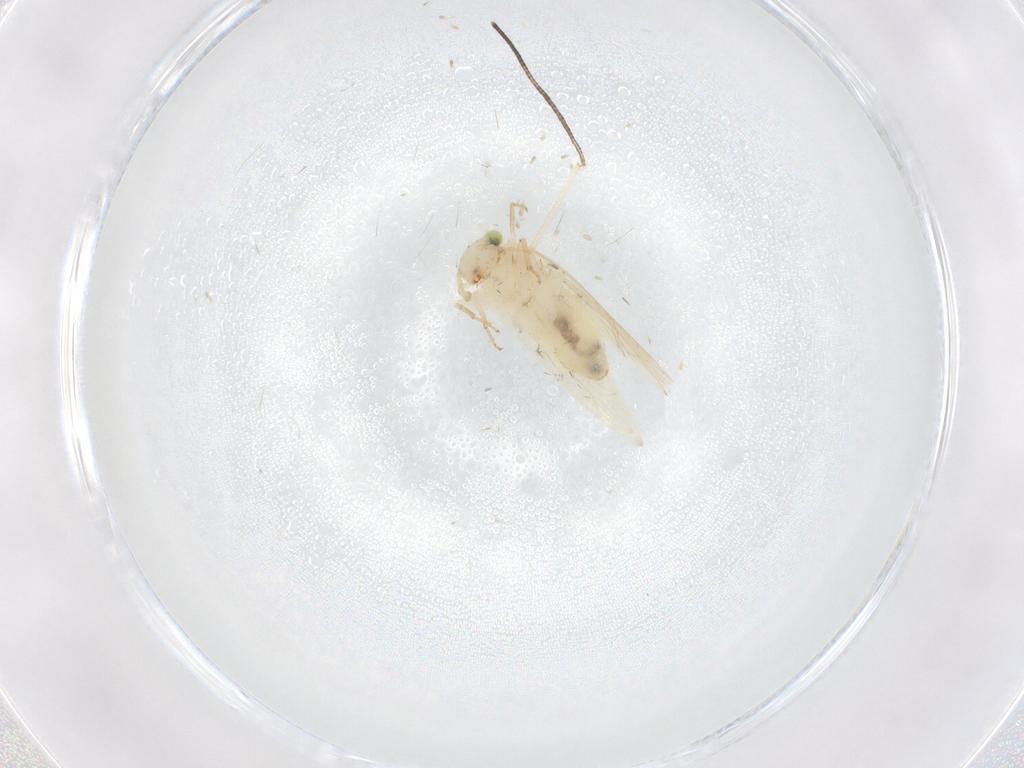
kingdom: Animalia
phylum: Arthropoda
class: Insecta
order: Psocodea
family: Lepidopsocidae
